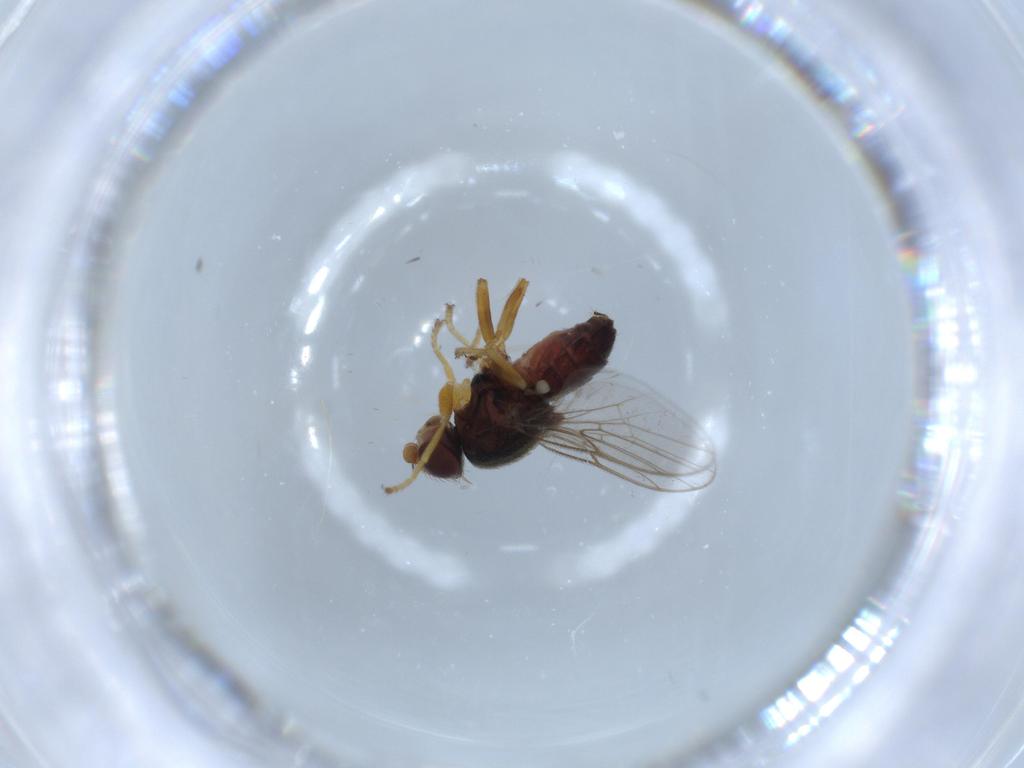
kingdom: Animalia
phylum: Arthropoda
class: Insecta
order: Diptera
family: Chloropidae
